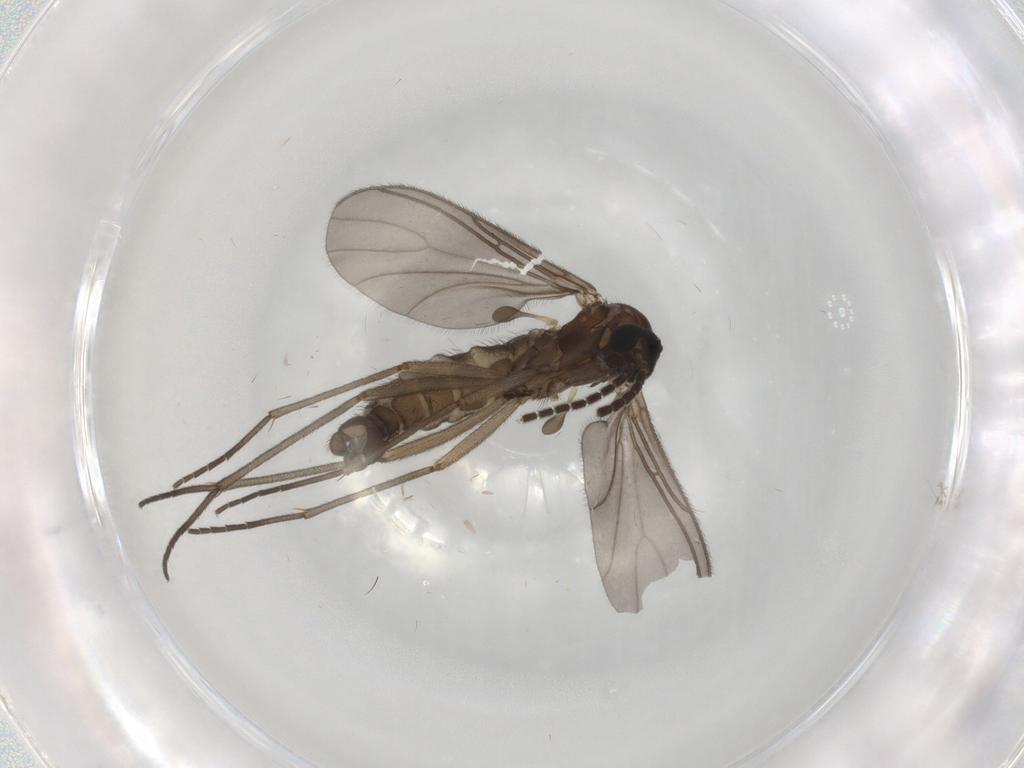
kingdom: Animalia
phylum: Arthropoda
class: Insecta
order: Diptera
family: Sciaridae
